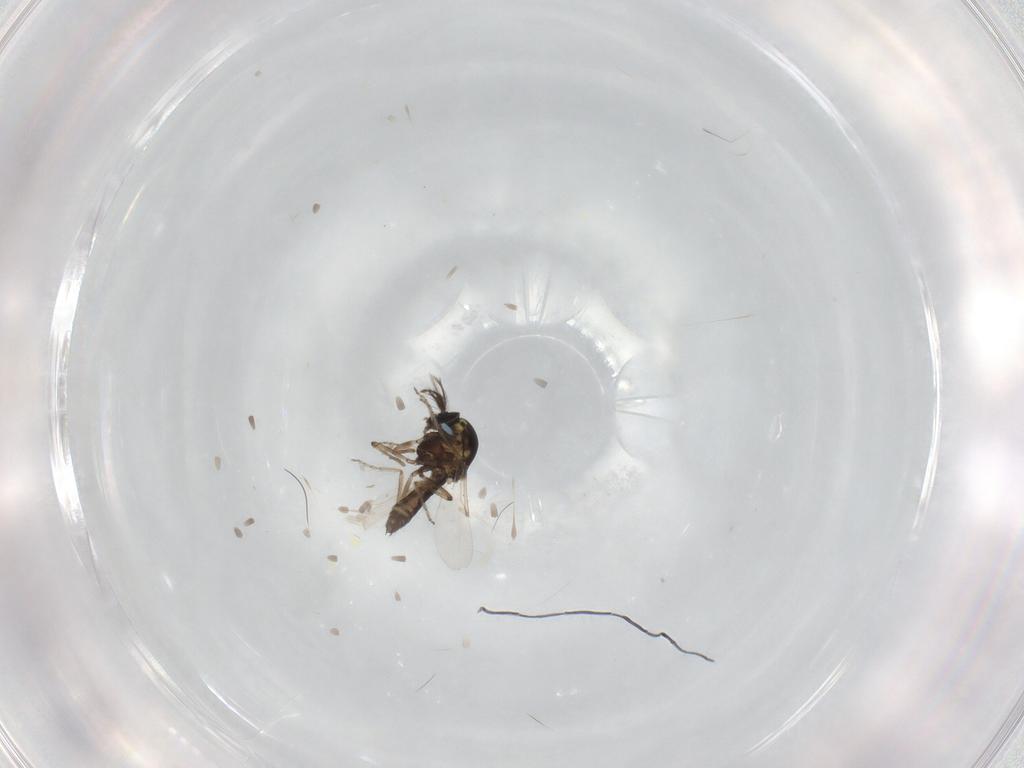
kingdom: Animalia
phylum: Arthropoda
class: Insecta
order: Diptera
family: Ceratopogonidae
